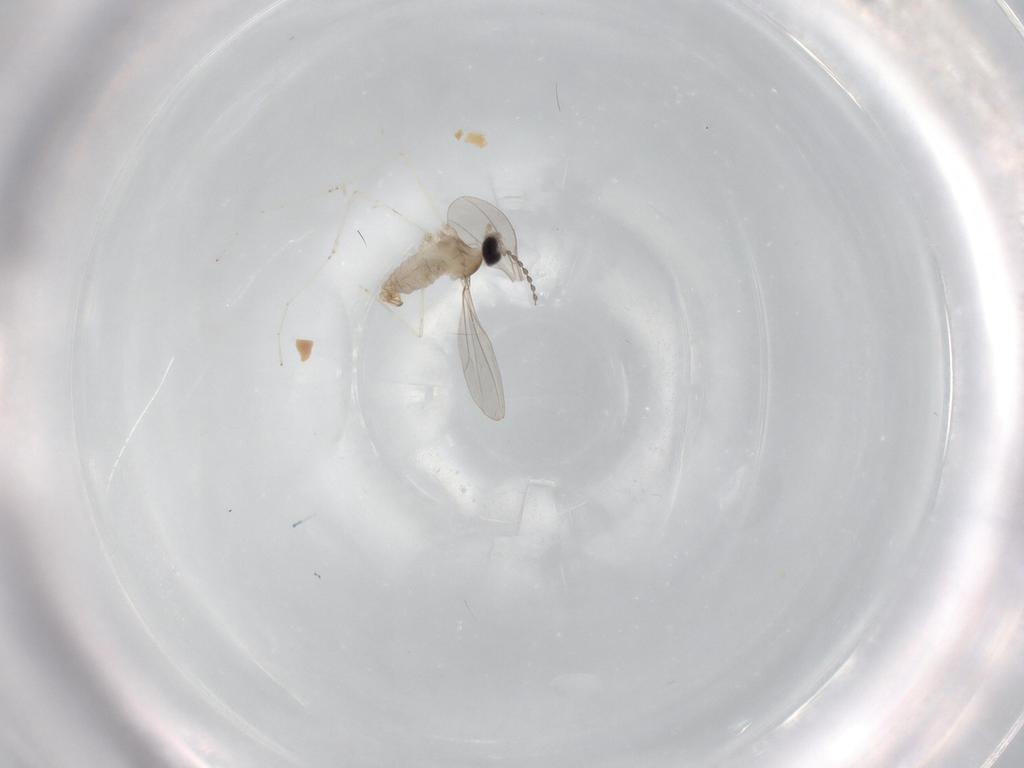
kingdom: Animalia
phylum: Arthropoda
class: Insecta
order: Diptera
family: Cecidomyiidae
